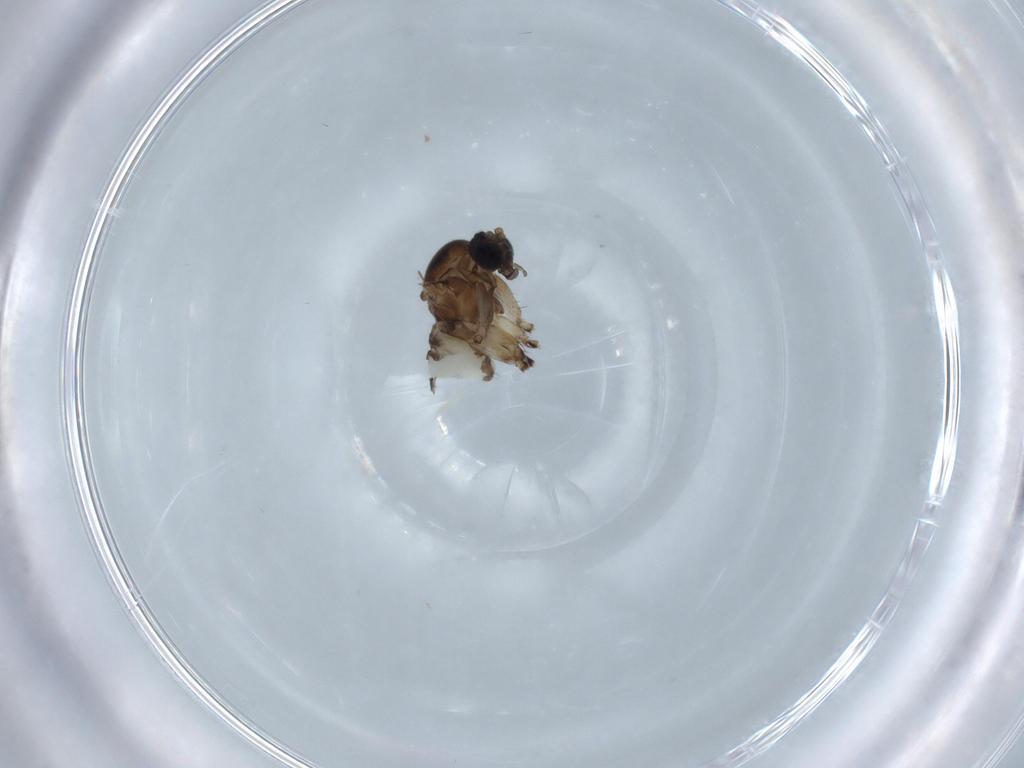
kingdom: Animalia
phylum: Arthropoda
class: Insecta
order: Diptera
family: Sciaridae
